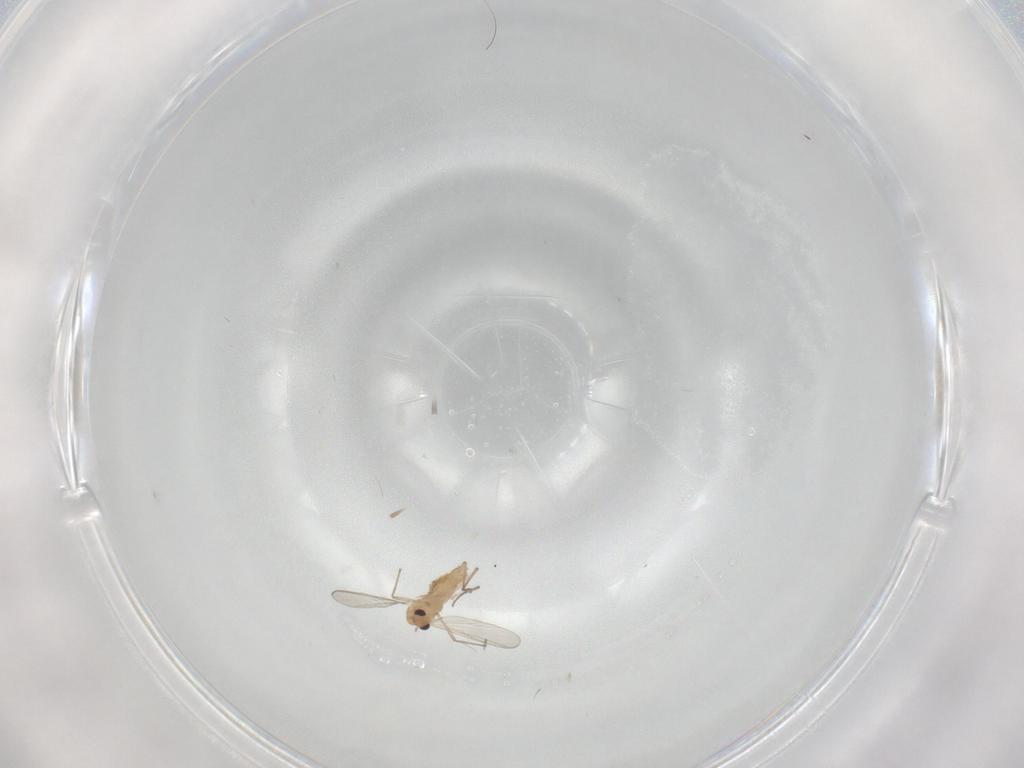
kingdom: Animalia
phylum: Arthropoda
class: Insecta
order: Diptera
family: Chironomidae
